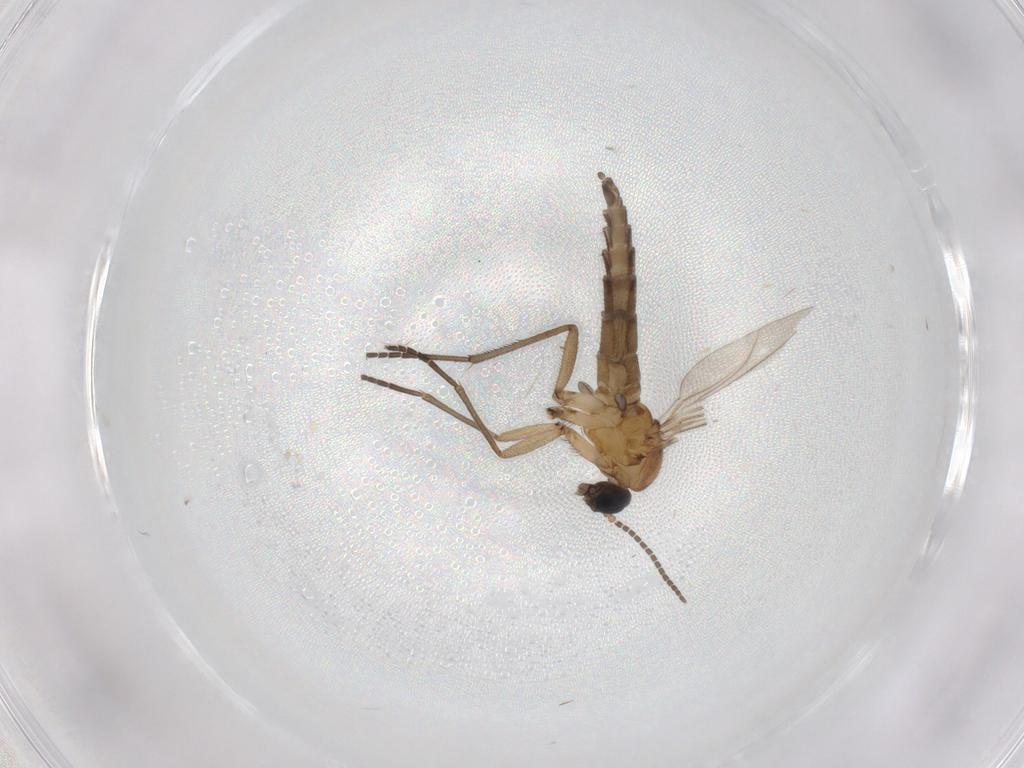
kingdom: Animalia
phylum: Arthropoda
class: Insecta
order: Diptera
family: Sciaridae
